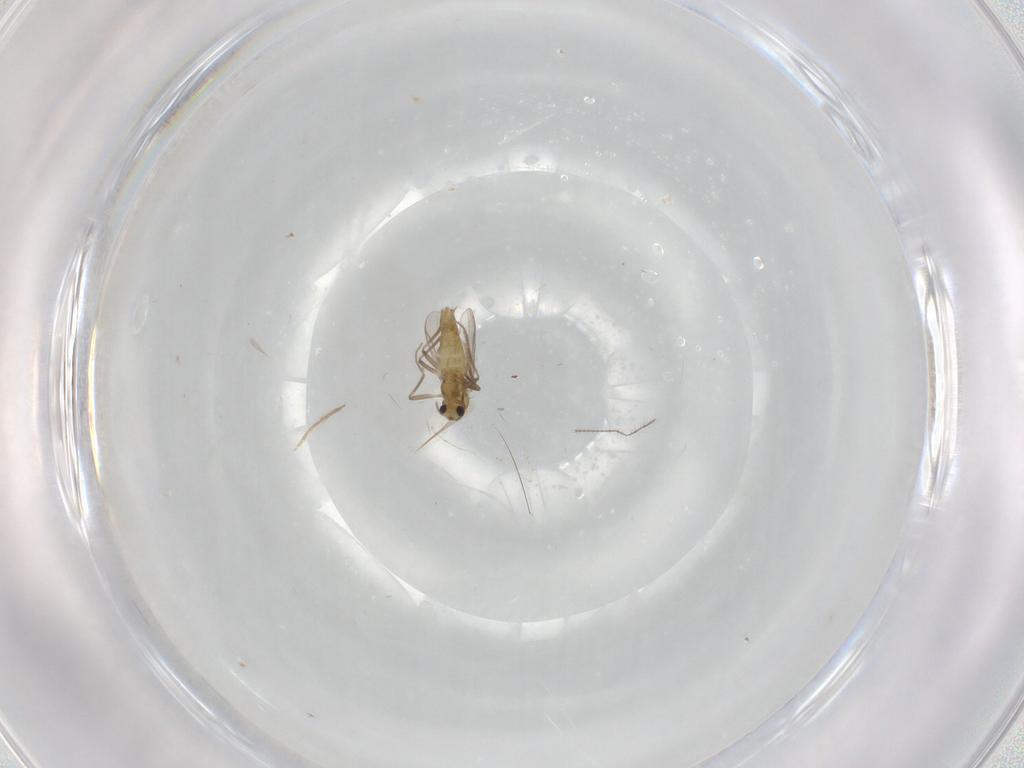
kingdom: Animalia
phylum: Arthropoda
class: Insecta
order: Diptera
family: Chironomidae
